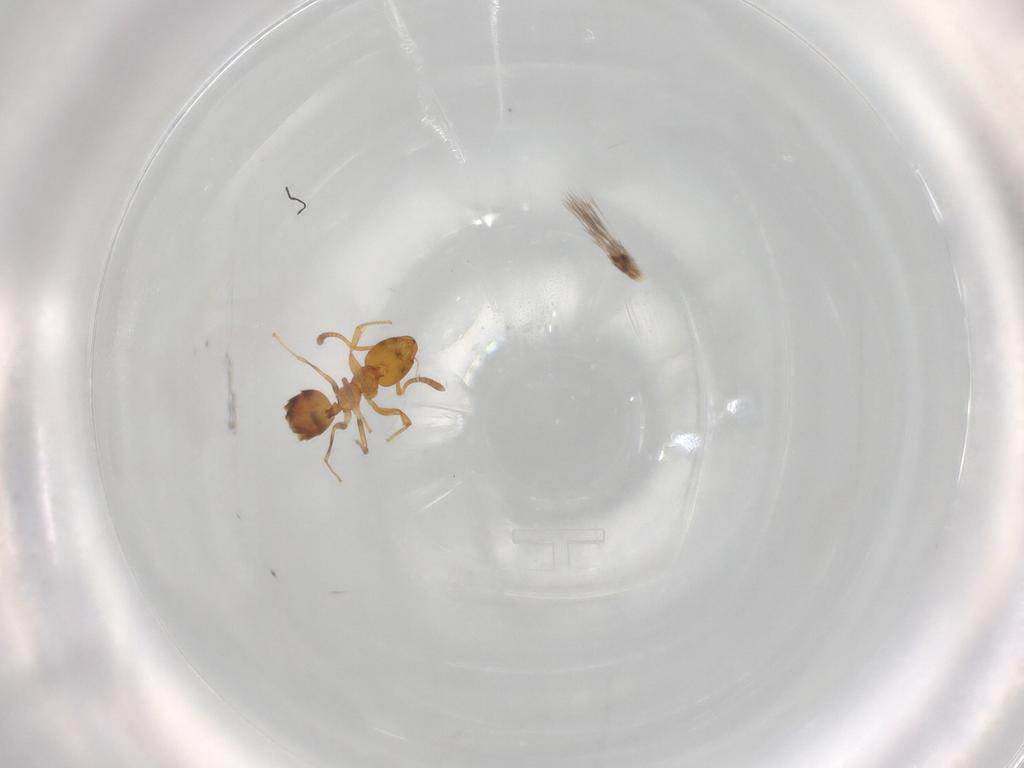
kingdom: Animalia
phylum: Arthropoda
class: Insecta
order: Hymenoptera
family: Formicidae
